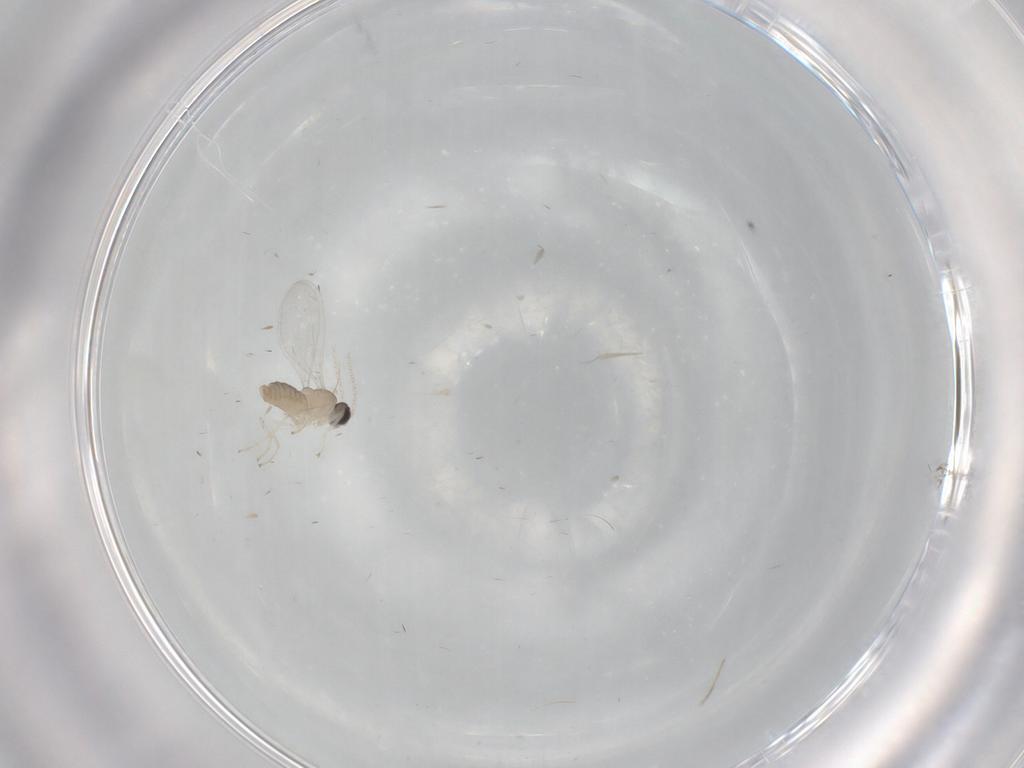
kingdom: Animalia
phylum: Arthropoda
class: Insecta
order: Diptera
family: Cecidomyiidae
